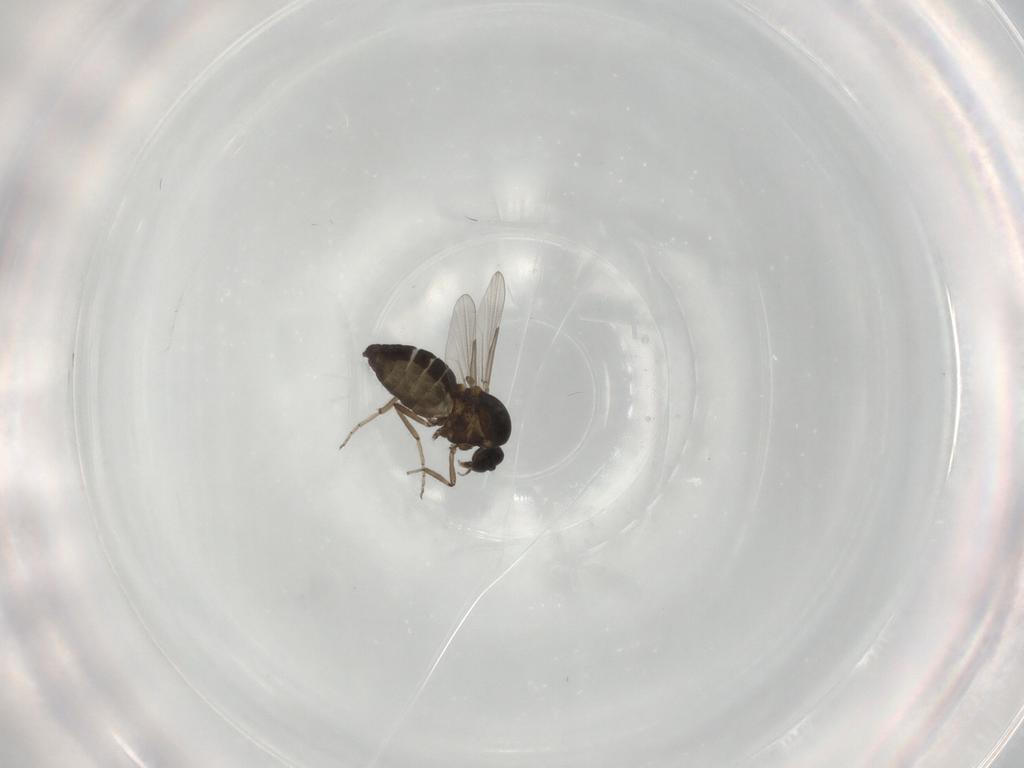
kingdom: Animalia
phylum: Arthropoda
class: Insecta
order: Diptera
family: Ceratopogonidae
